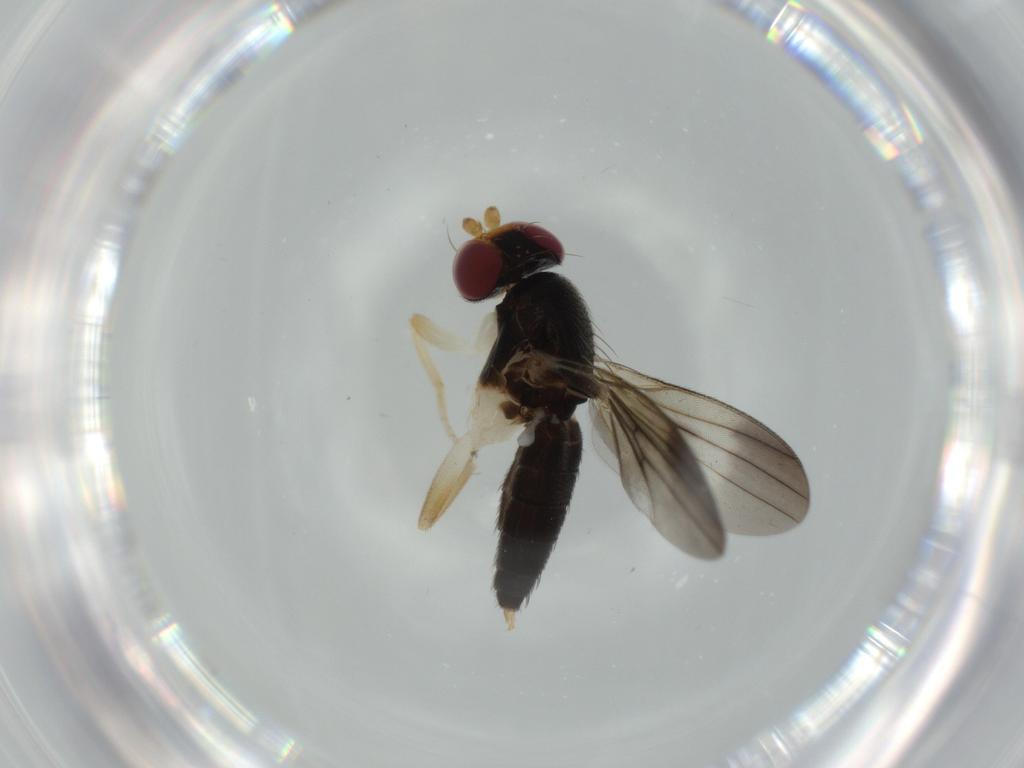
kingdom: Animalia
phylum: Arthropoda
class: Insecta
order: Diptera
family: Clusiidae
